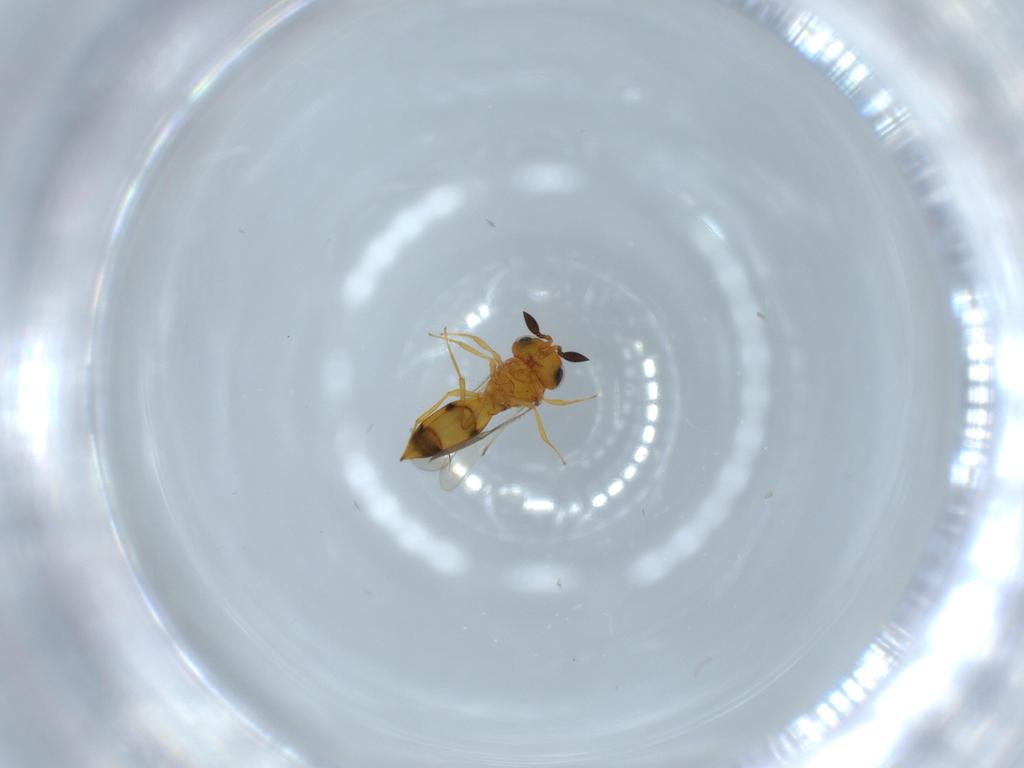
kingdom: Animalia
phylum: Arthropoda
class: Insecta
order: Hymenoptera
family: Scelionidae
